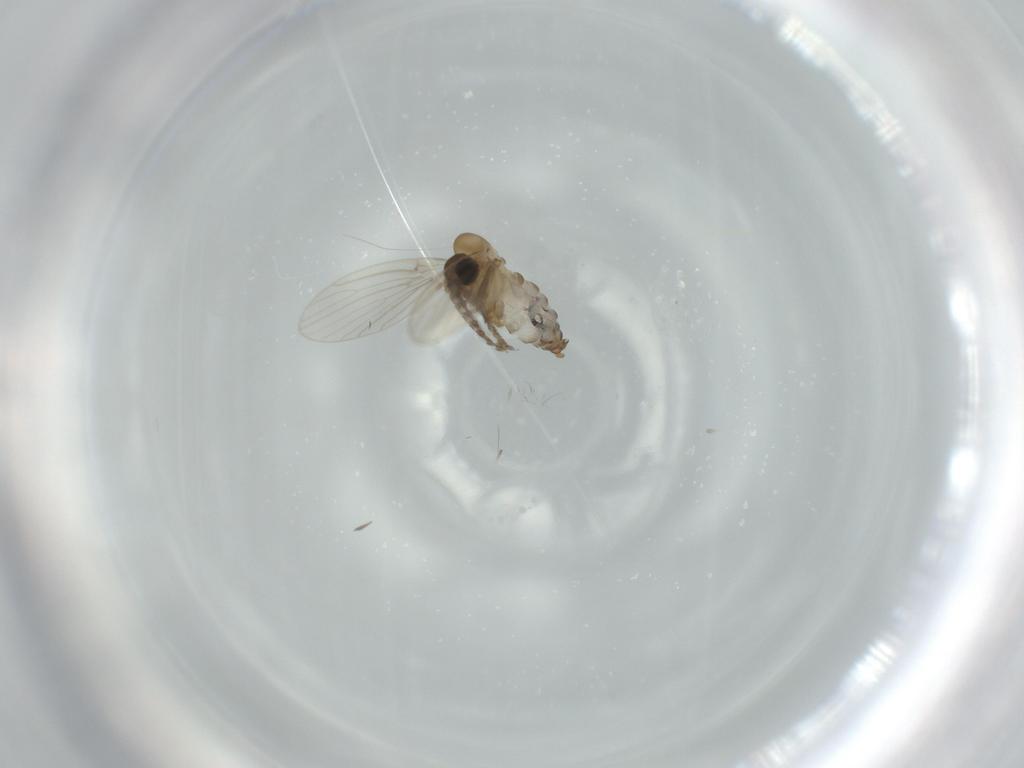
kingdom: Animalia
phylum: Arthropoda
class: Insecta
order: Diptera
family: Psychodidae
